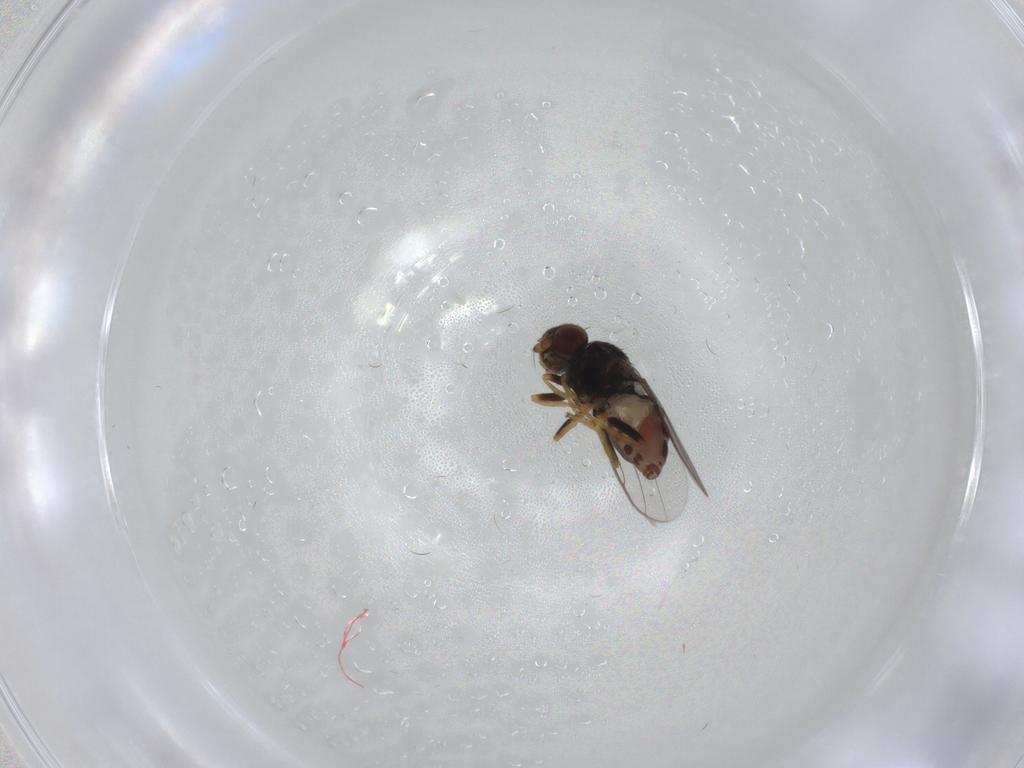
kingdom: Animalia
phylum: Arthropoda
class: Insecta
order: Diptera
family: Chloropidae
